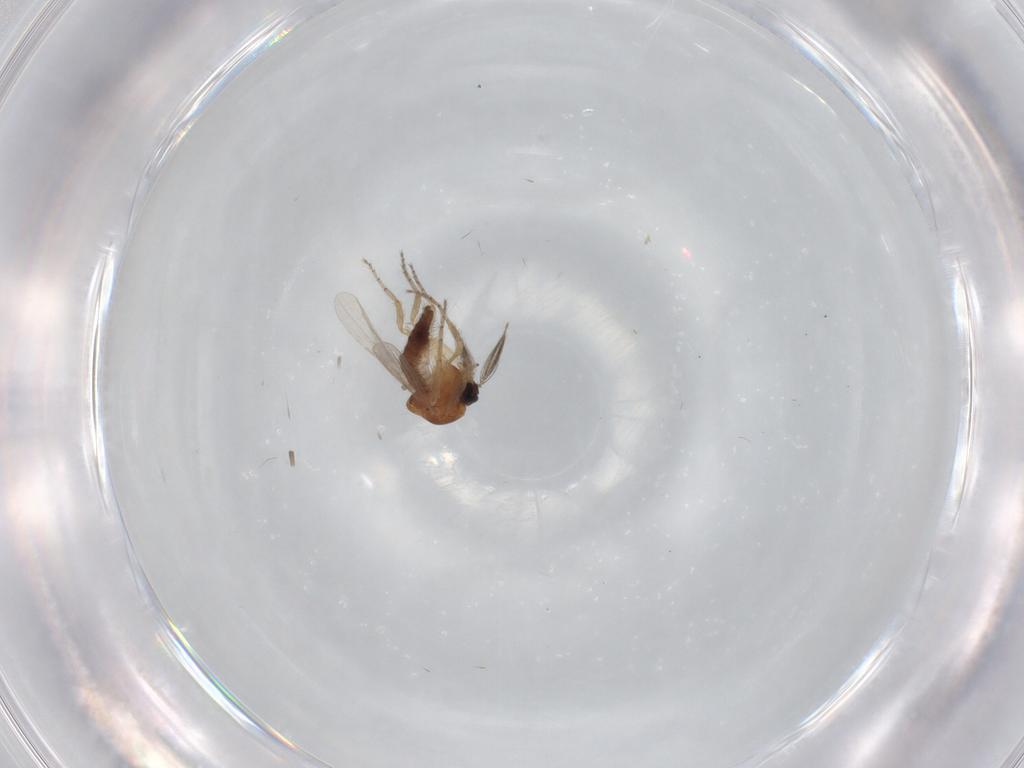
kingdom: Animalia
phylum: Arthropoda
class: Insecta
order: Diptera
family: Ceratopogonidae
